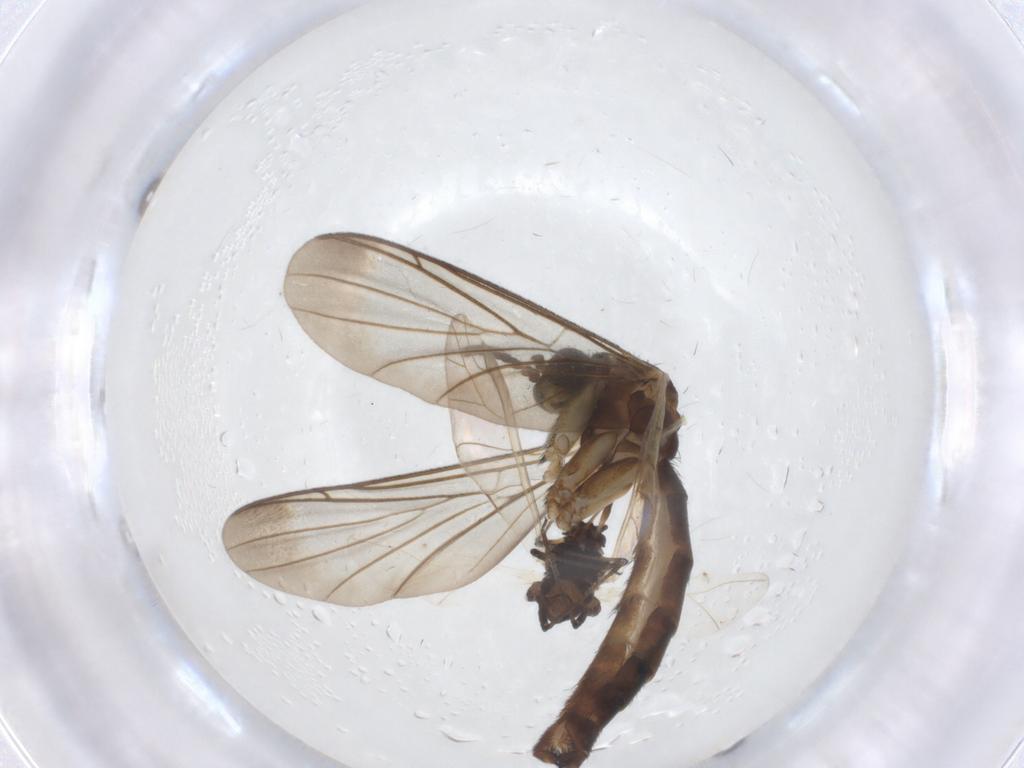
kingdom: Animalia
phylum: Arthropoda
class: Insecta
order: Diptera
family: Keroplatidae
